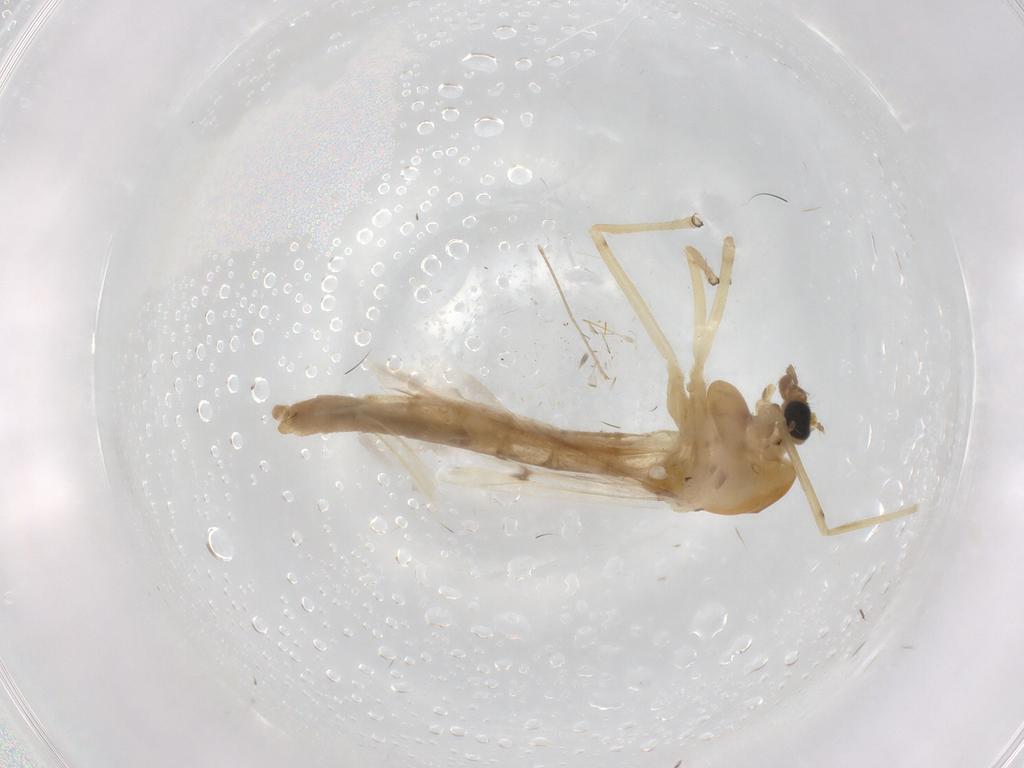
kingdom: Animalia
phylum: Arthropoda
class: Insecta
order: Diptera
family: Chironomidae
